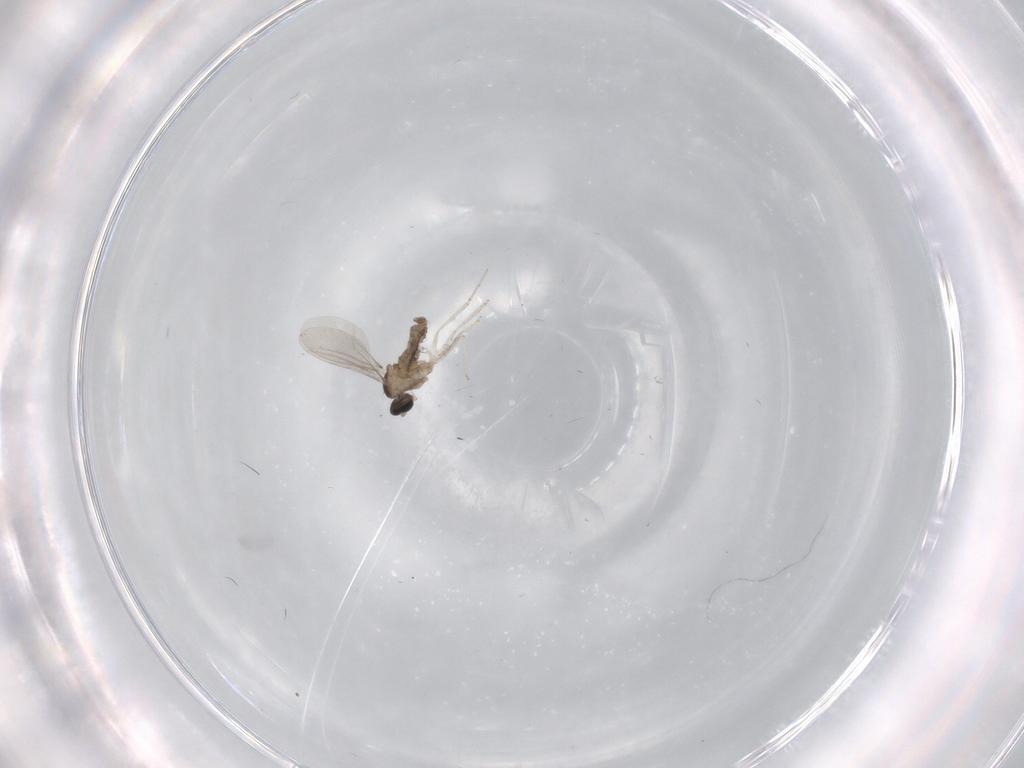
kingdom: Animalia
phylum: Arthropoda
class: Insecta
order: Diptera
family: Cecidomyiidae
